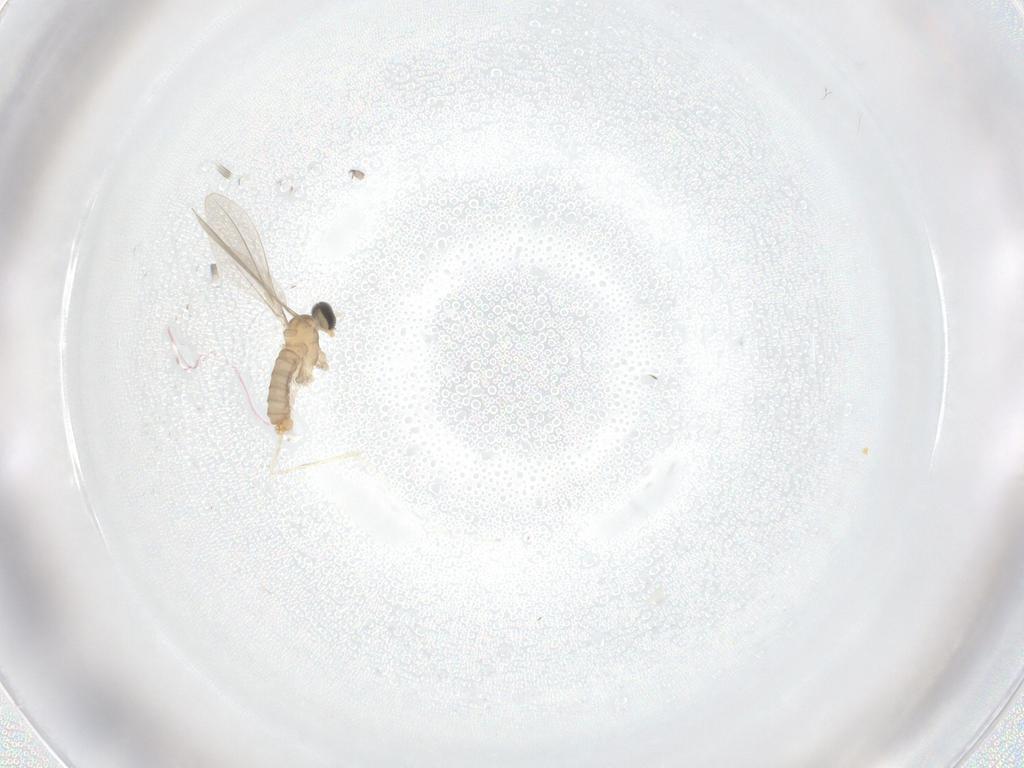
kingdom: Animalia
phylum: Arthropoda
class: Insecta
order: Diptera
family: Cecidomyiidae
